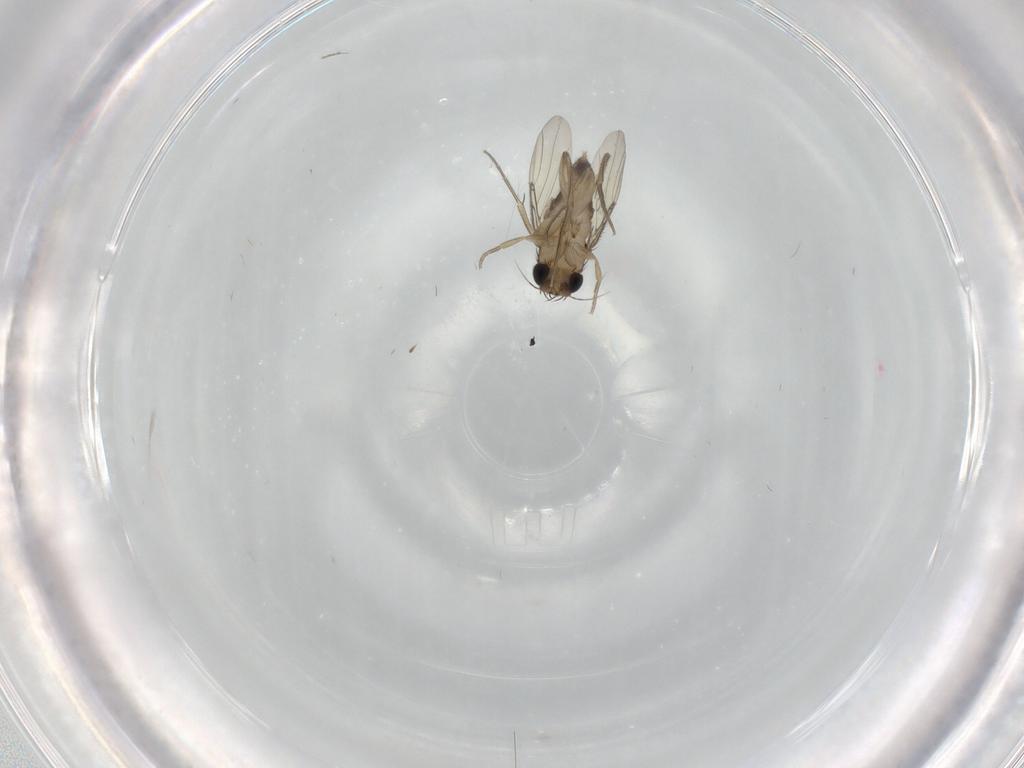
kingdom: Animalia
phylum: Arthropoda
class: Insecta
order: Diptera
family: Phoridae
